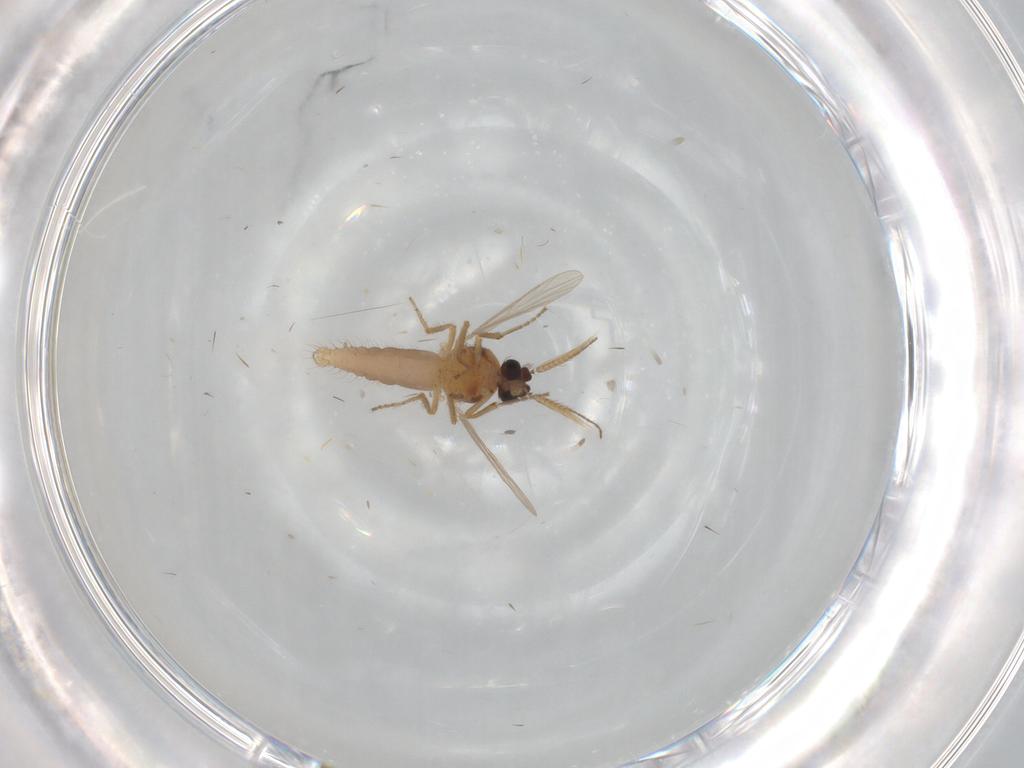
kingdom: Animalia
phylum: Arthropoda
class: Insecta
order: Diptera
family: Ceratopogonidae
